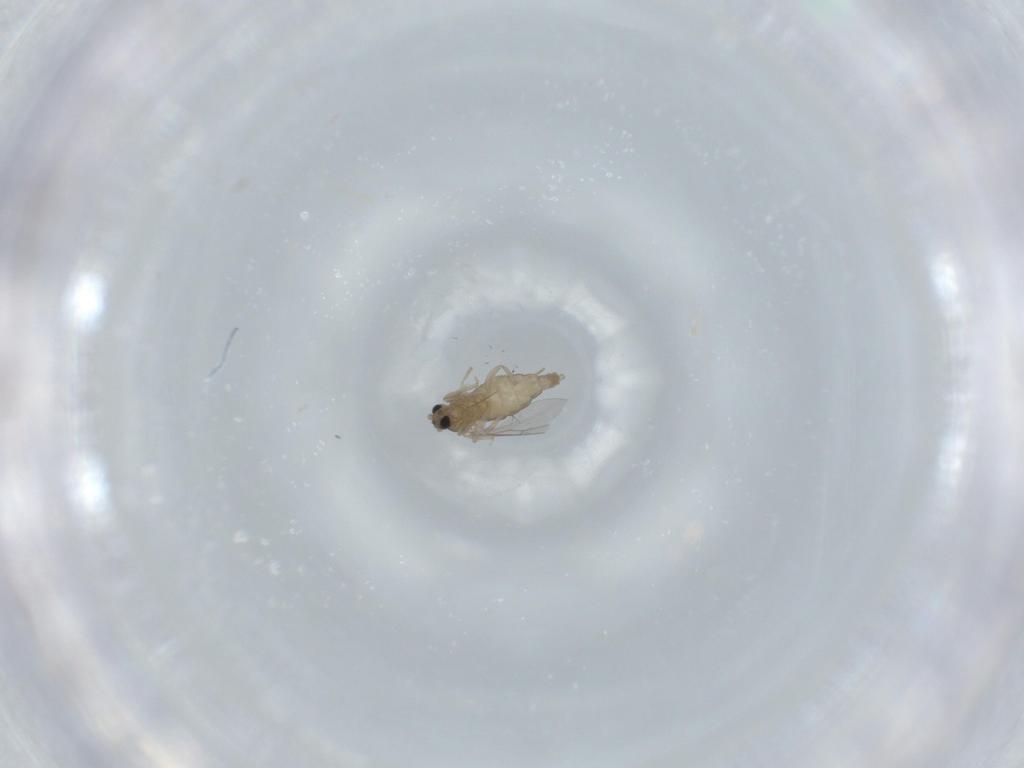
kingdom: Animalia
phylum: Arthropoda
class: Insecta
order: Diptera
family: Cecidomyiidae
